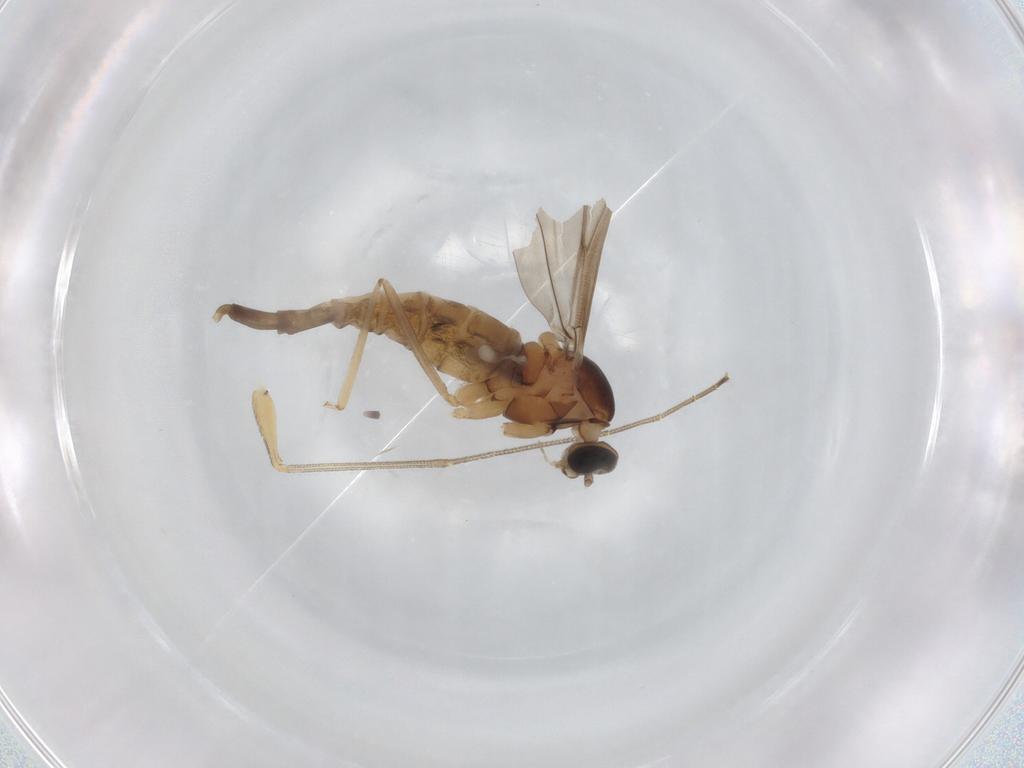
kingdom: Animalia
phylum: Arthropoda
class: Insecta
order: Diptera
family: Cecidomyiidae
